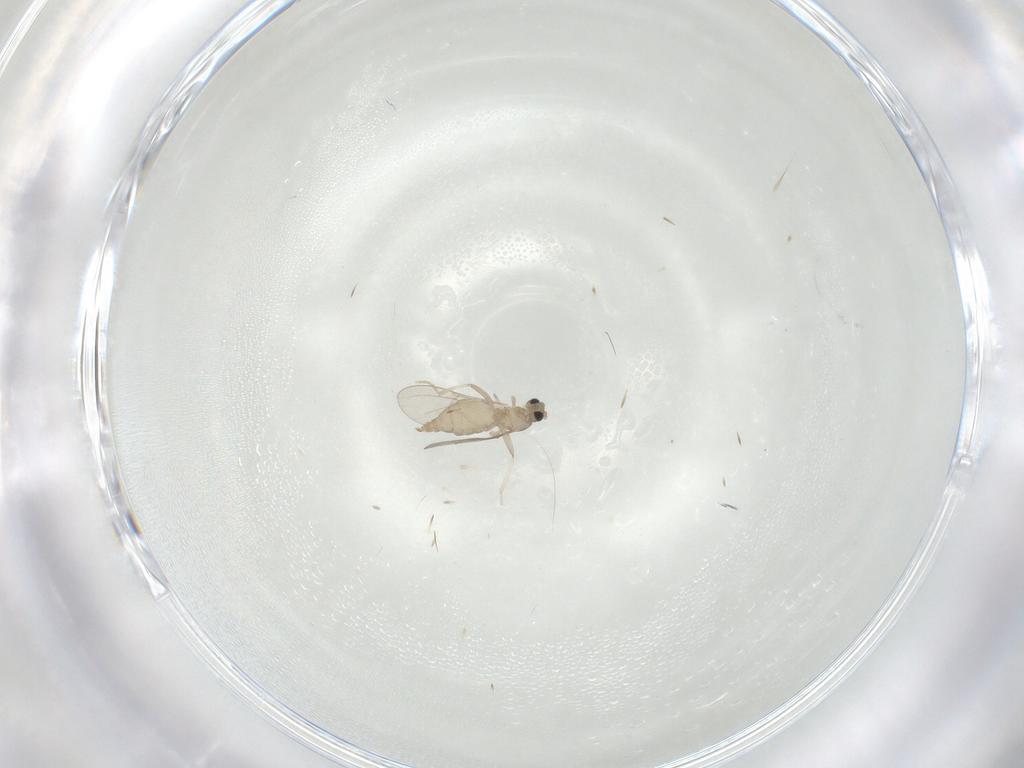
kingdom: Animalia
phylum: Arthropoda
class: Insecta
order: Diptera
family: Cecidomyiidae
